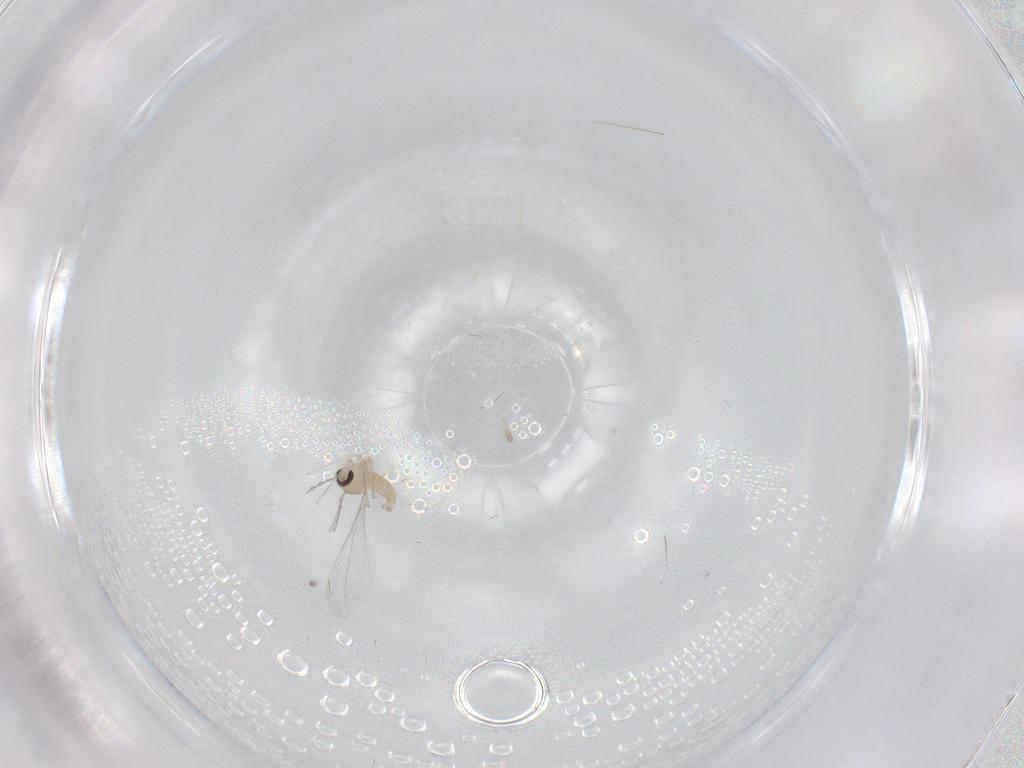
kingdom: Animalia
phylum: Arthropoda
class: Insecta
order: Diptera
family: Cecidomyiidae
